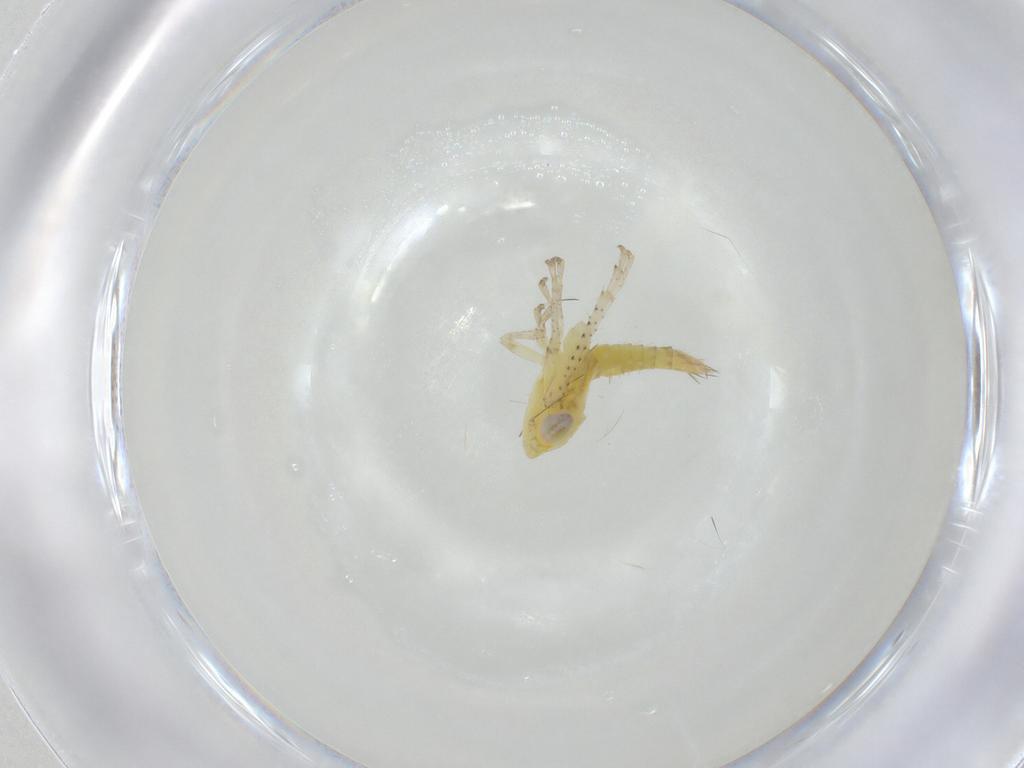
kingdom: Animalia
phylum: Arthropoda
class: Insecta
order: Hemiptera
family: Cicadellidae
